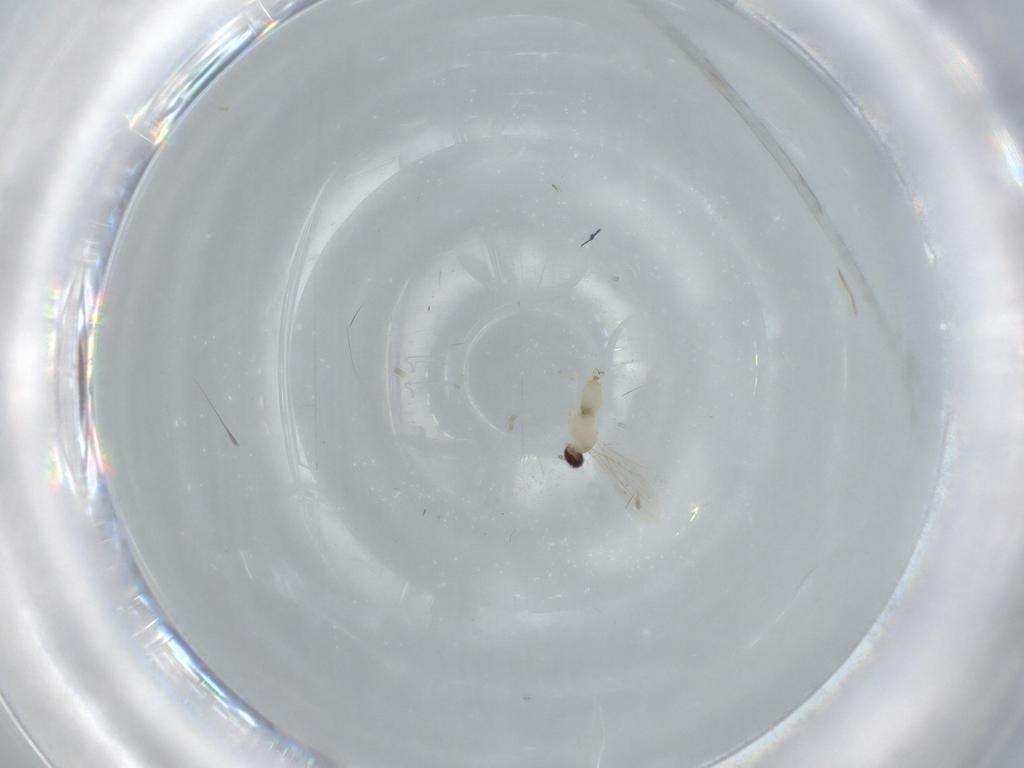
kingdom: Animalia
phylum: Arthropoda
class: Insecta
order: Diptera
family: Cecidomyiidae
